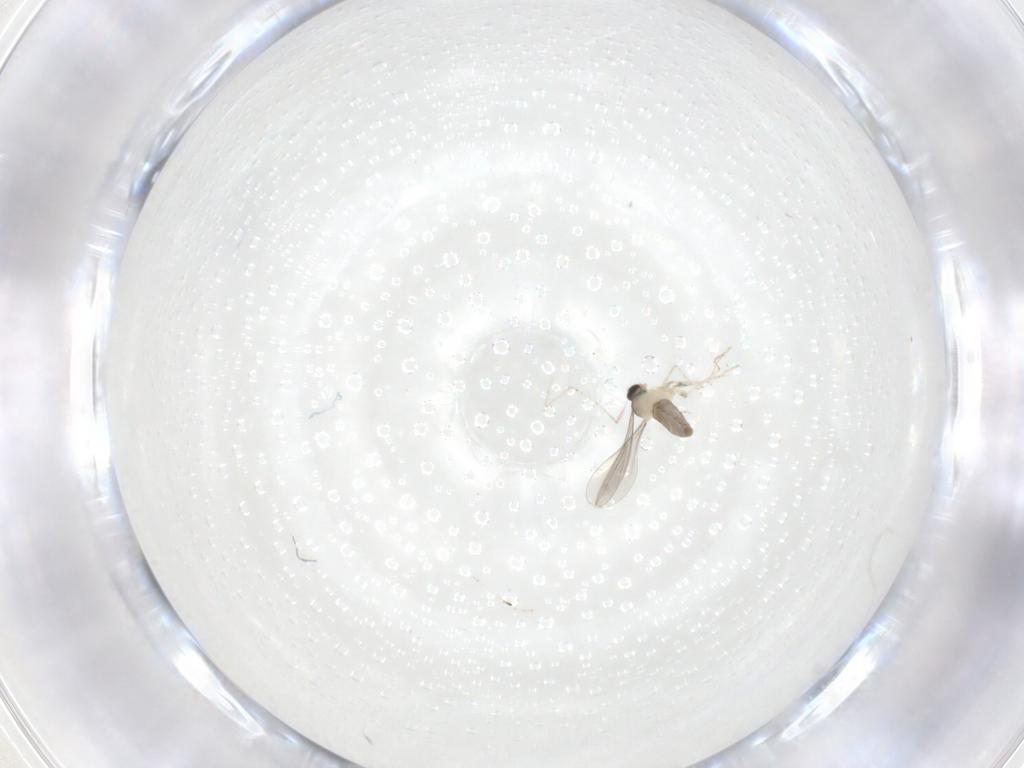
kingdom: Animalia
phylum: Arthropoda
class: Insecta
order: Diptera
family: Cecidomyiidae
